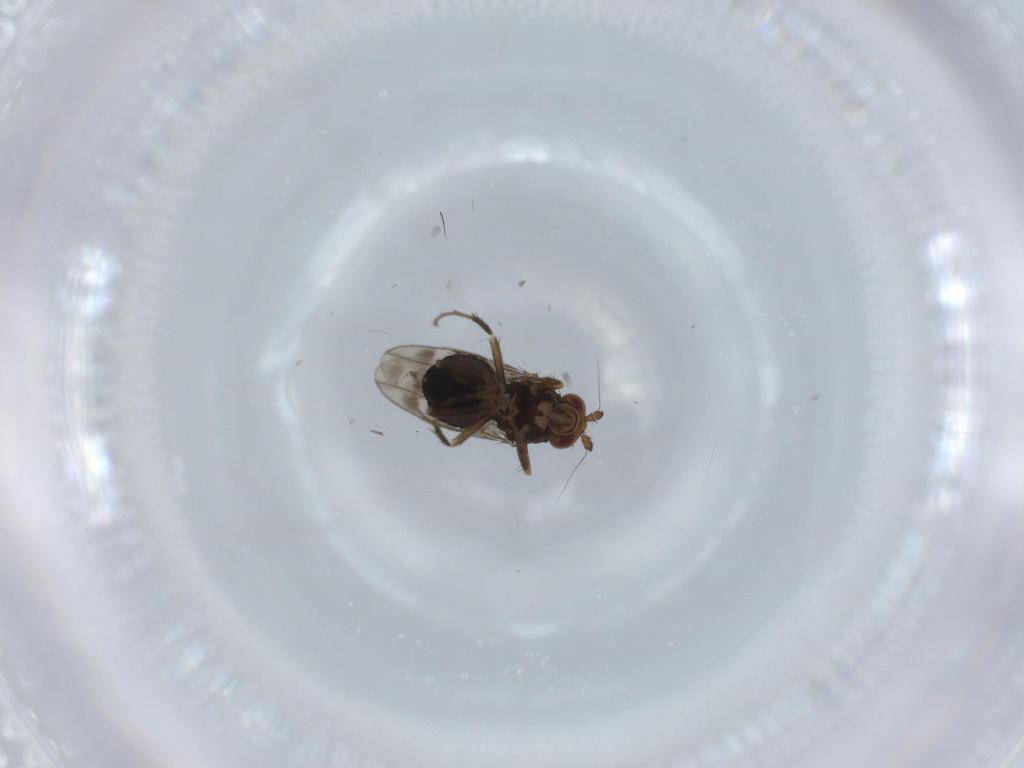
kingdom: Animalia
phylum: Arthropoda
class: Insecta
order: Diptera
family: Sphaeroceridae
